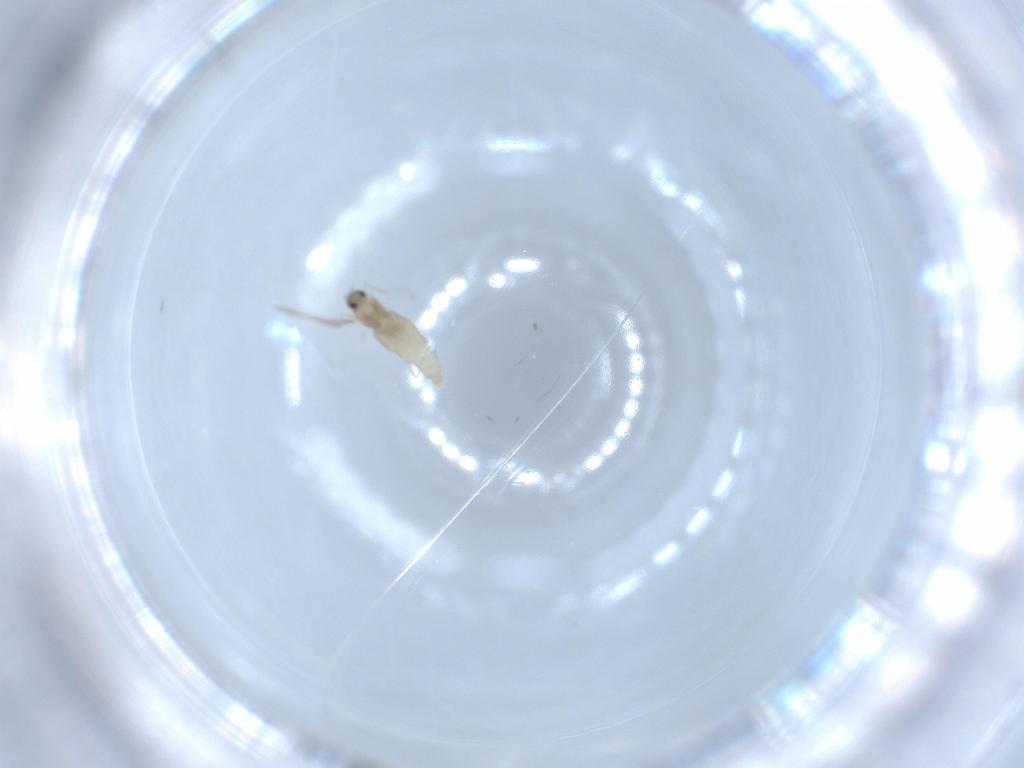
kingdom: Animalia
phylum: Arthropoda
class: Insecta
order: Diptera
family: Cecidomyiidae
